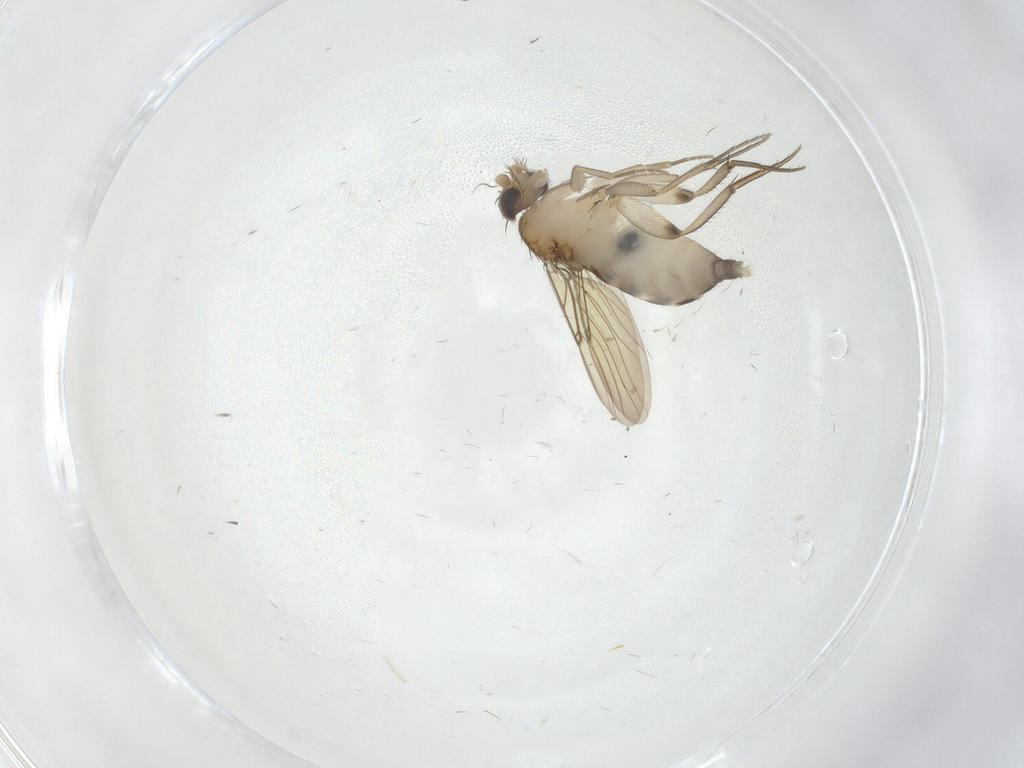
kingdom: Animalia
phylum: Arthropoda
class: Insecta
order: Diptera
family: Phoridae
